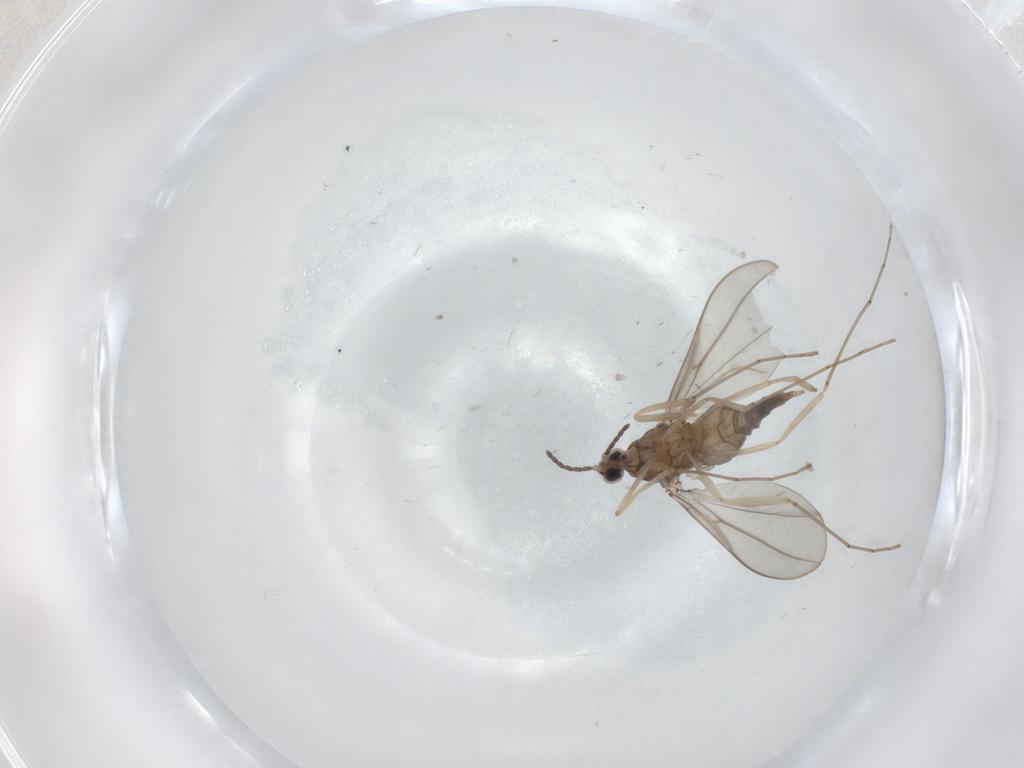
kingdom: Animalia
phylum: Arthropoda
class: Insecta
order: Diptera
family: Cecidomyiidae
